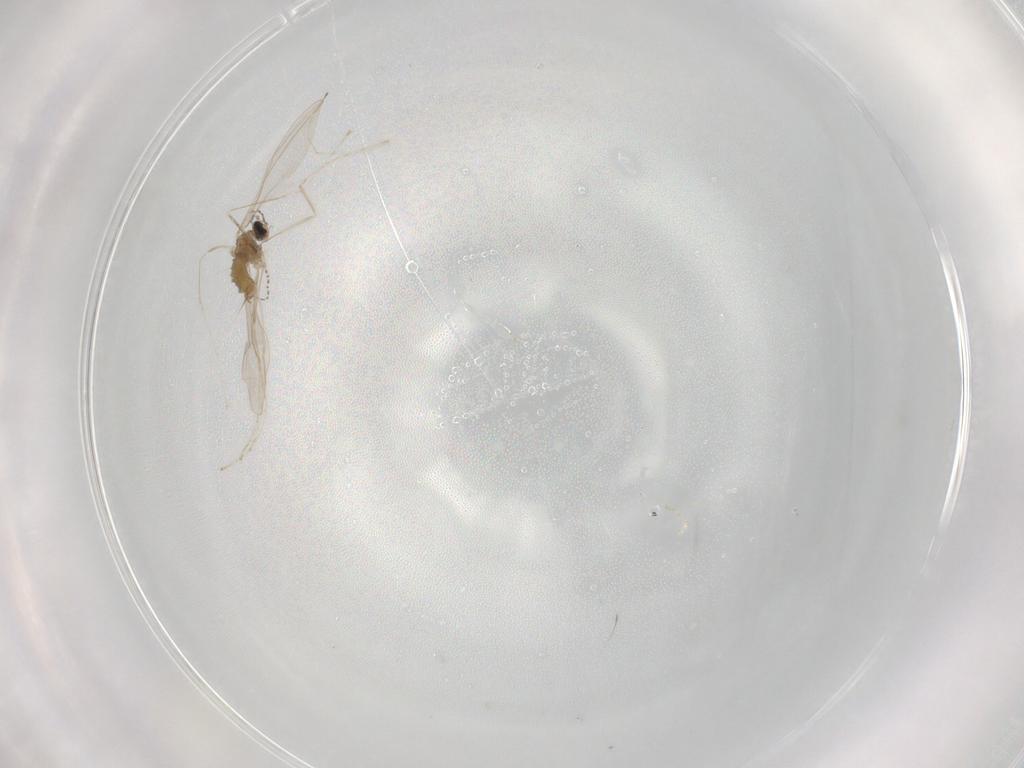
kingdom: Animalia
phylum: Arthropoda
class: Insecta
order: Diptera
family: Cecidomyiidae
